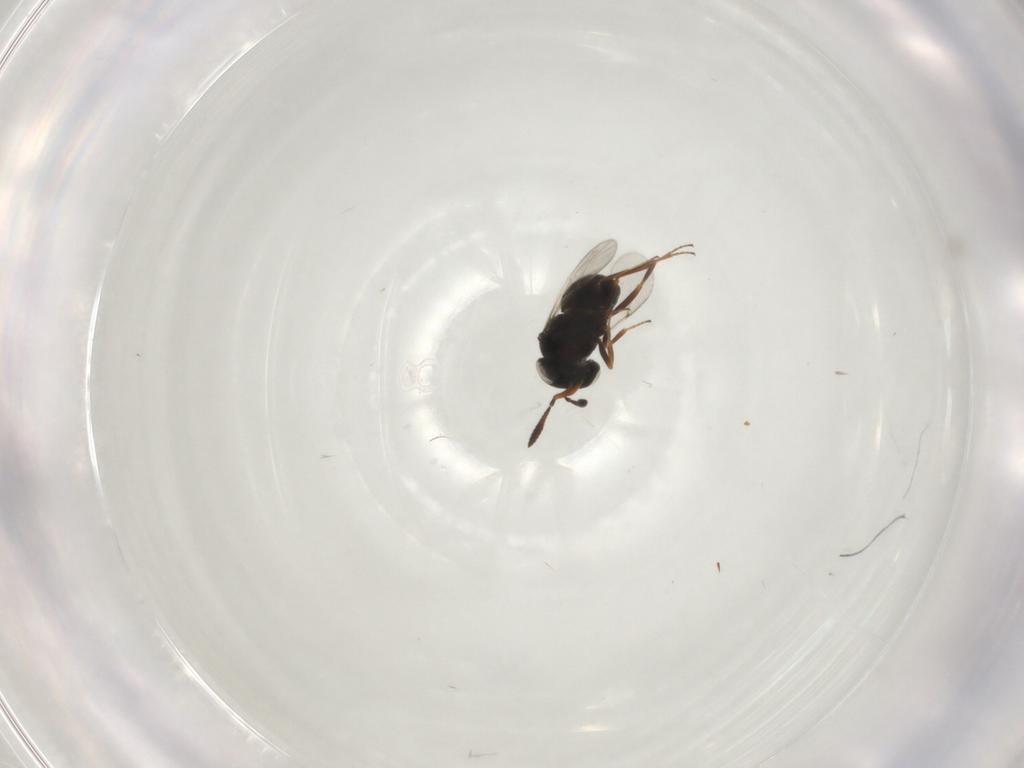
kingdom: Animalia
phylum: Arthropoda
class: Insecta
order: Hymenoptera
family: Scelionidae
